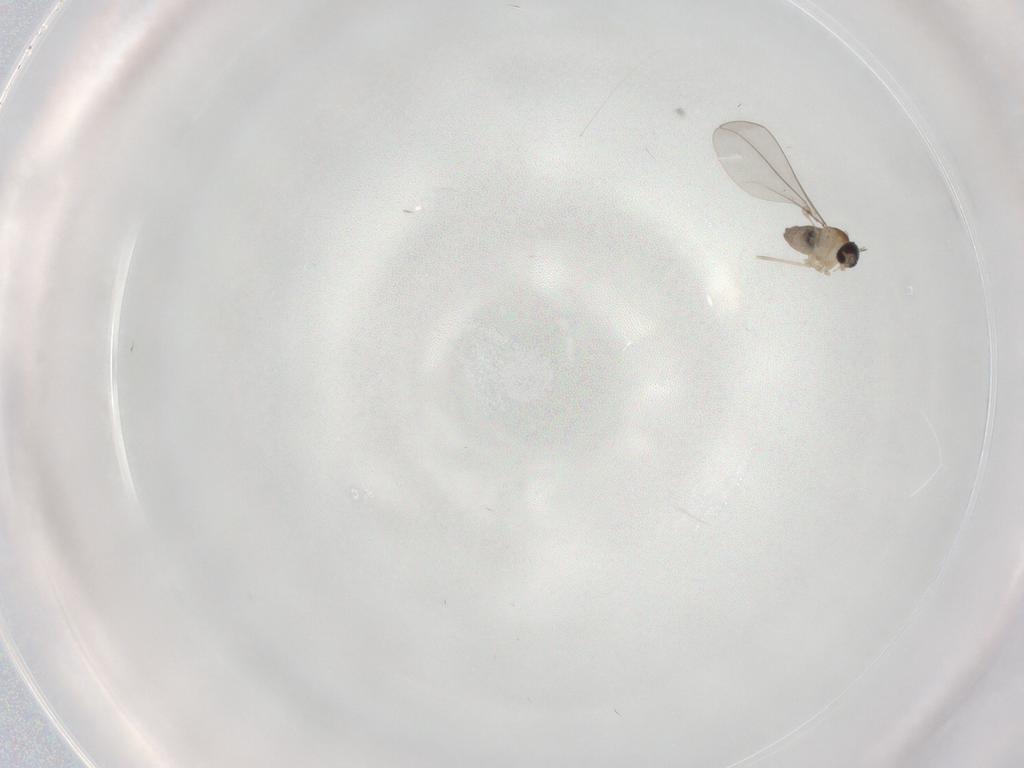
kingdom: Animalia
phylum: Arthropoda
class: Insecta
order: Diptera
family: Cecidomyiidae
